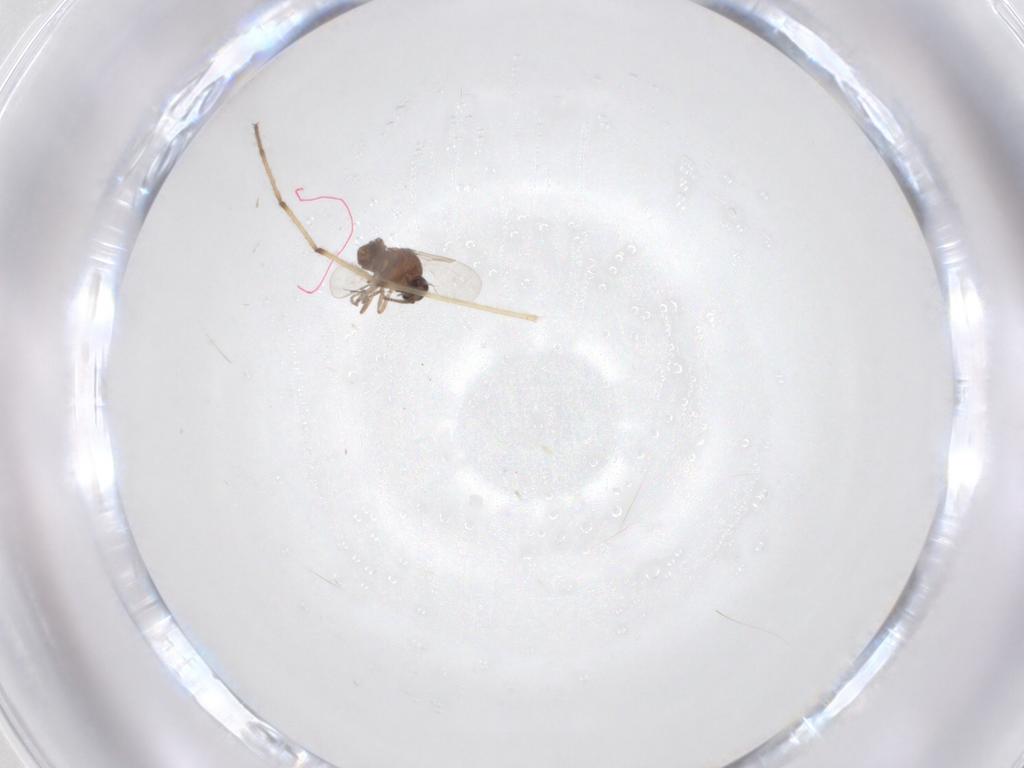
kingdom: Animalia
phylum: Arthropoda
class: Insecta
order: Diptera
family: Ceratopogonidae
